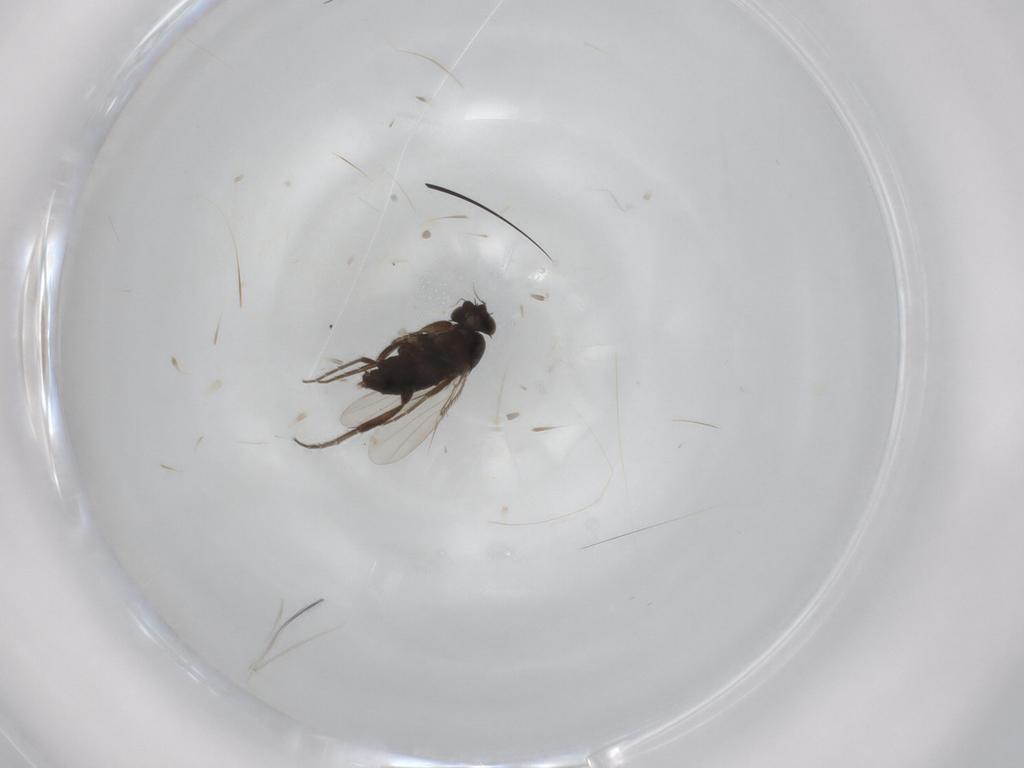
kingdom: Animalia
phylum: Arthropoda
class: Insecta
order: Diptera
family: Phoridae
